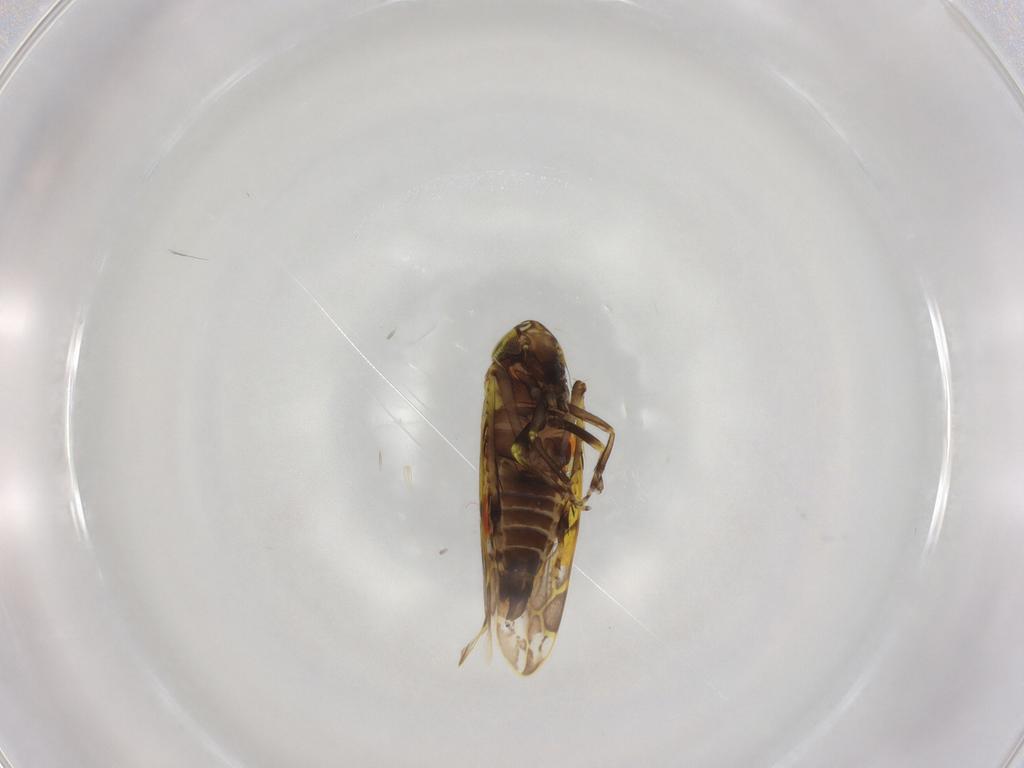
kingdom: Animalia
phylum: Arthropoda
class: Insecta
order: Hemiptera
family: Cicadellidae
